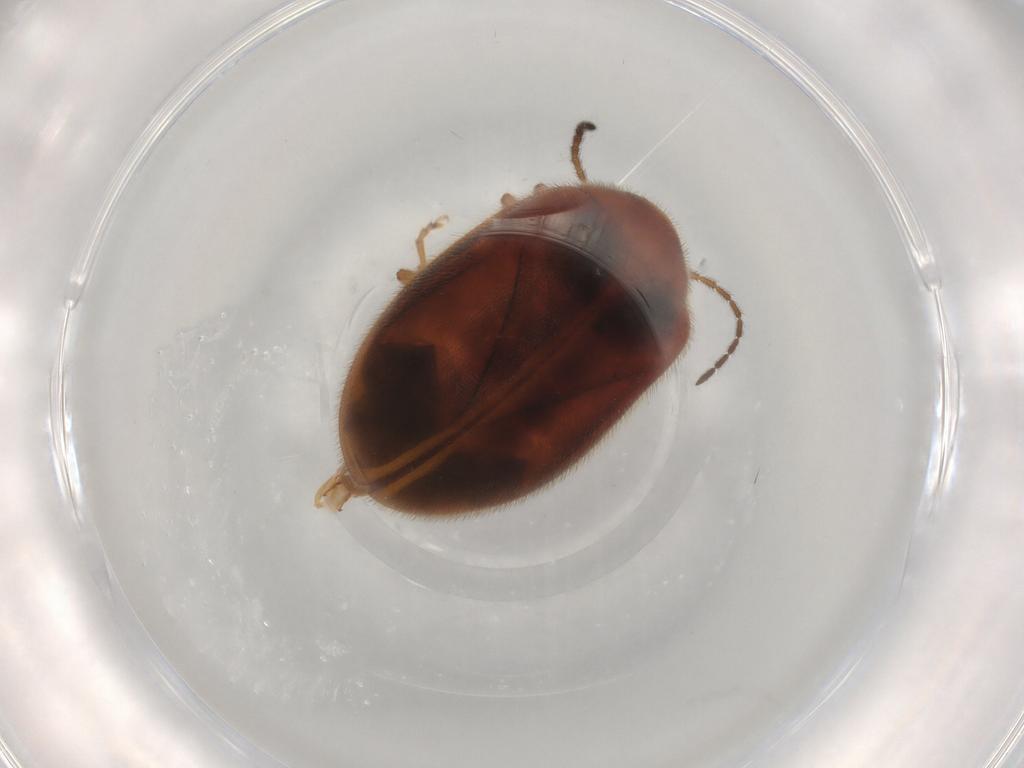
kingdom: Animalia
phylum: Arthropoda
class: Insecta
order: Coleoptera
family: Scirtidae
